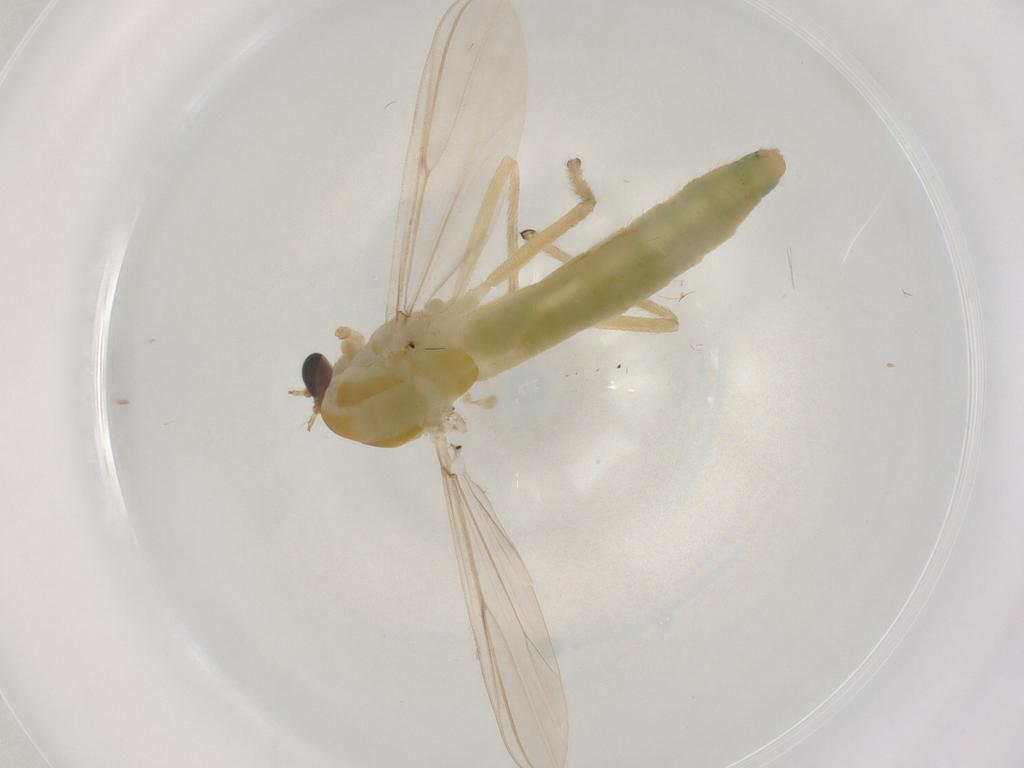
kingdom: Animalia
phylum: Arthropoda
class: Insecta
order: Diptera
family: Chironomidae
